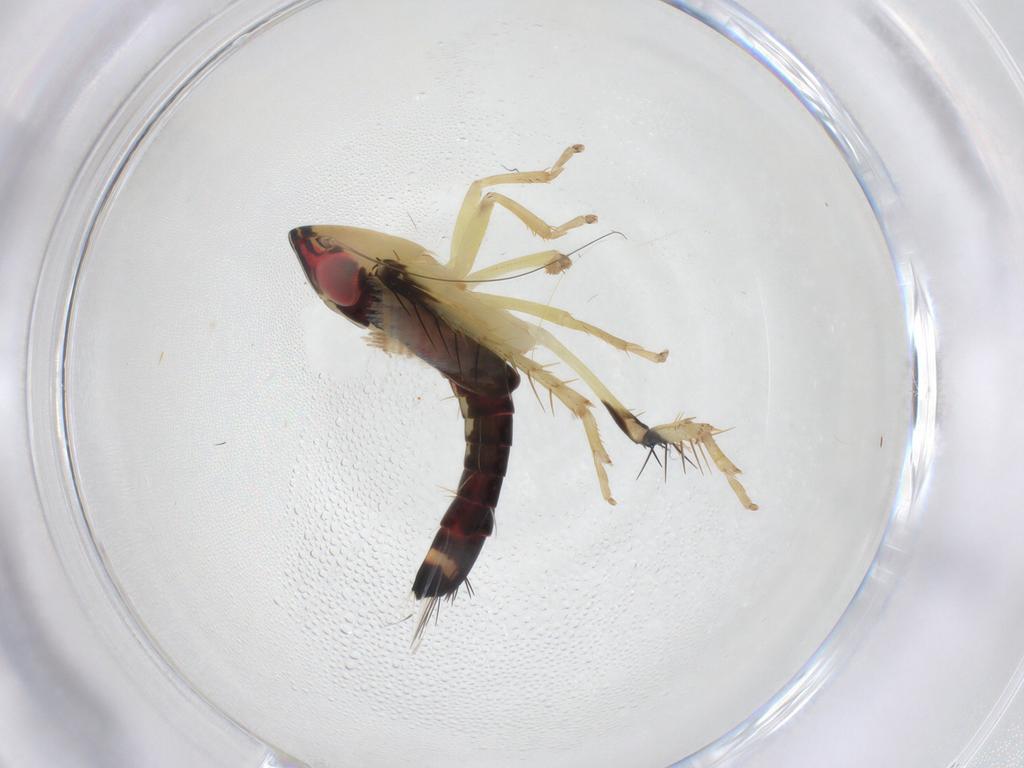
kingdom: Animalia
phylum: Arthropoda
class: Insecta
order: Hemiptera
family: Cicadellidae
